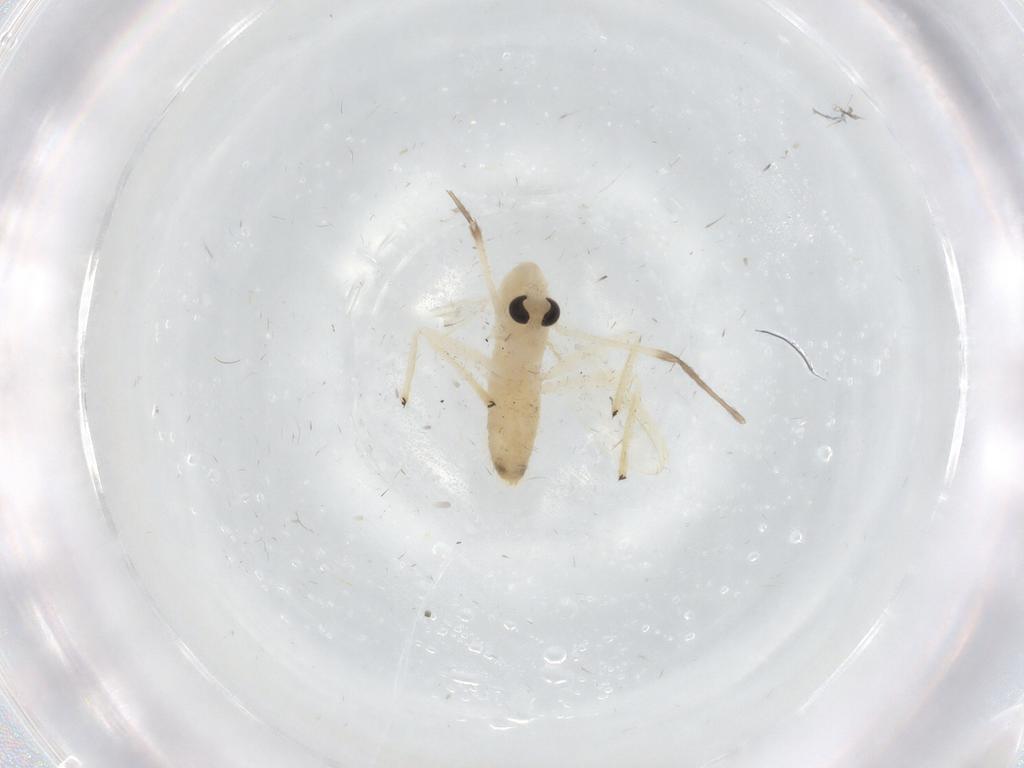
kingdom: Animalia
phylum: Arthropoda
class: Insecta
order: Diptera
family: Chironomidae
